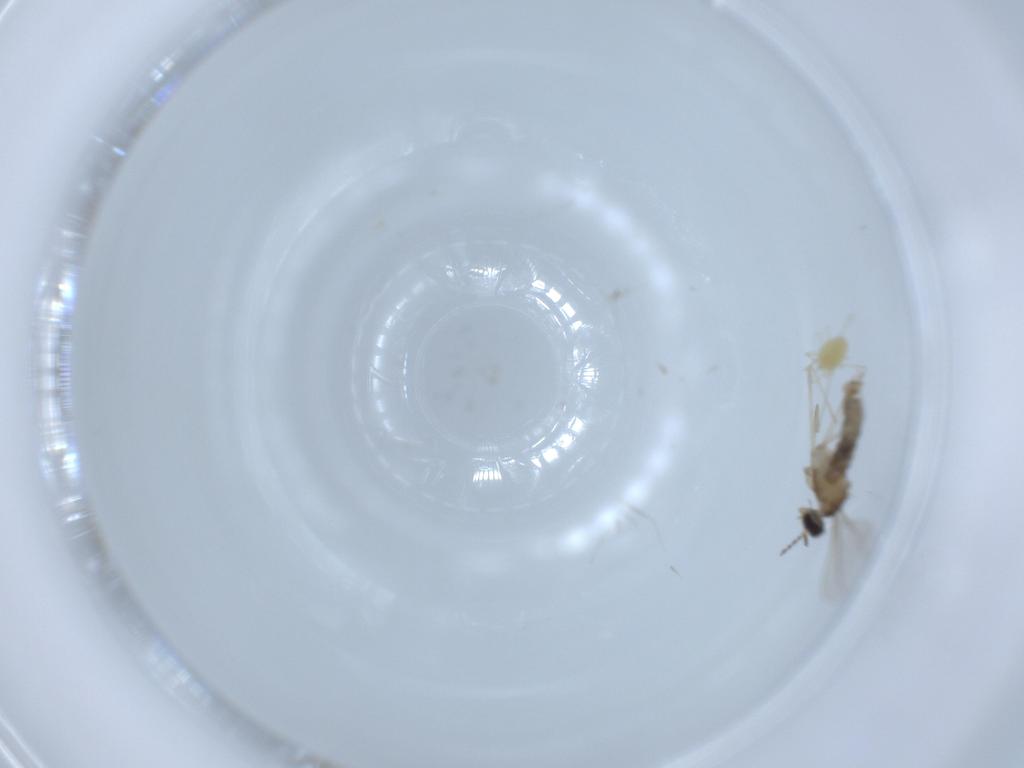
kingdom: Animalia
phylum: Arthropoda
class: Insecta
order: Diptera
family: Cecidomyiidae
